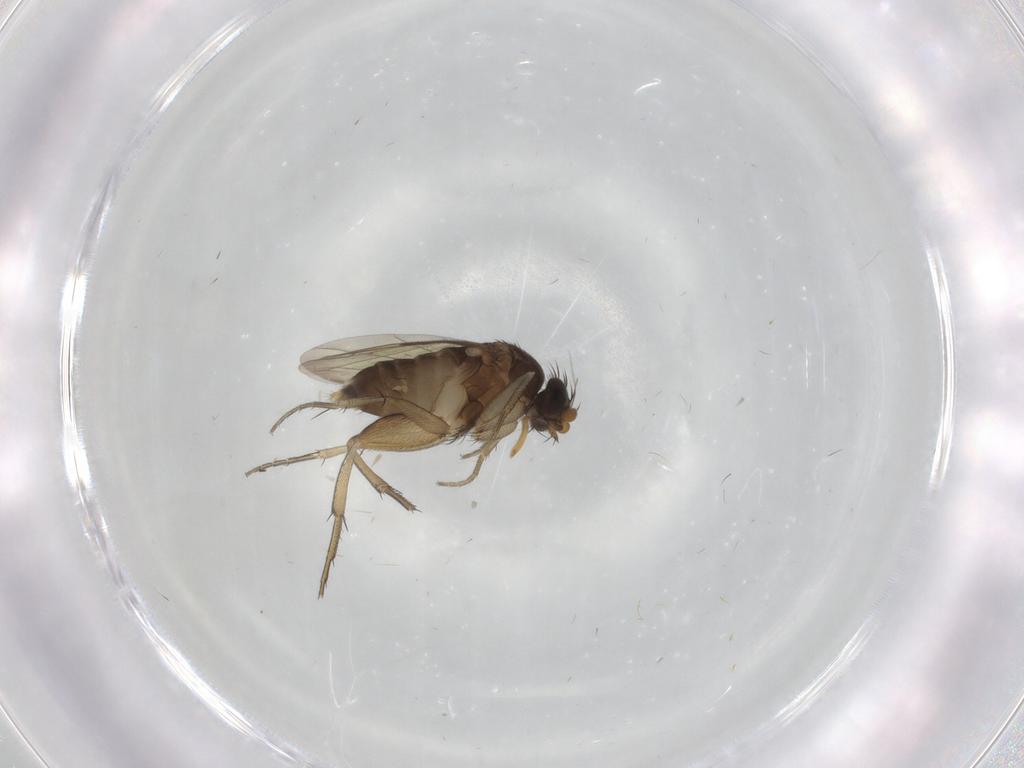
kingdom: Animalia
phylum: Arthropoda
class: Insecta
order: Diptera
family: Phoridae
